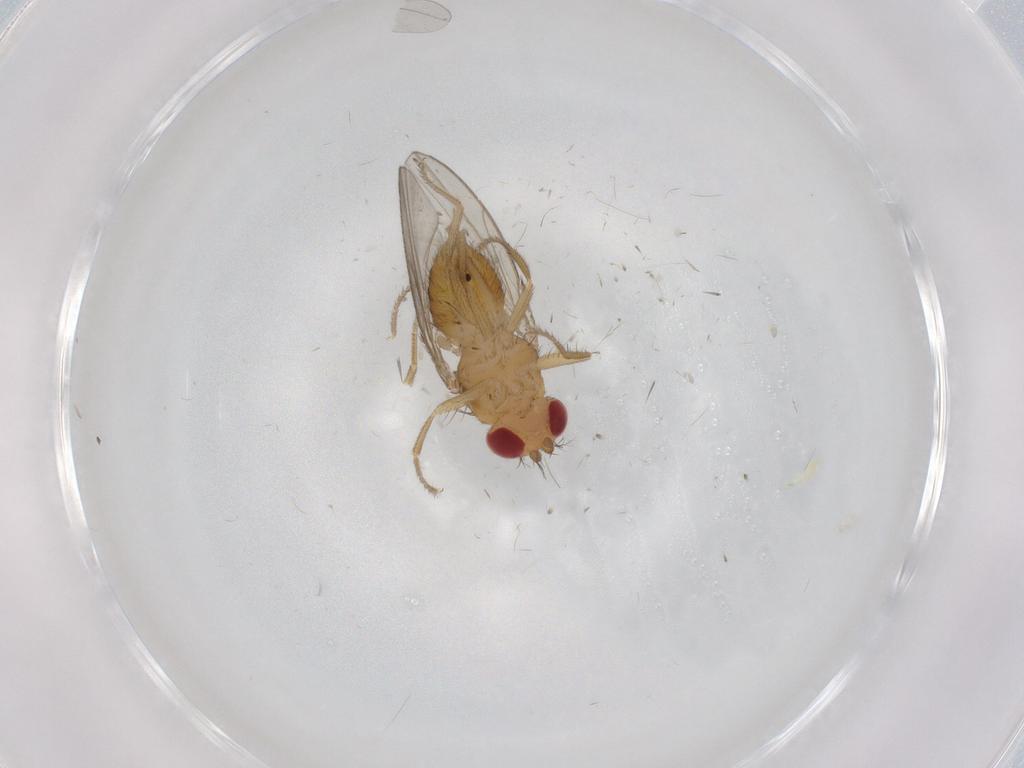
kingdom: Animalia
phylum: Arthropoda
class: Insecta
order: Diptera
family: Drosophilidae
